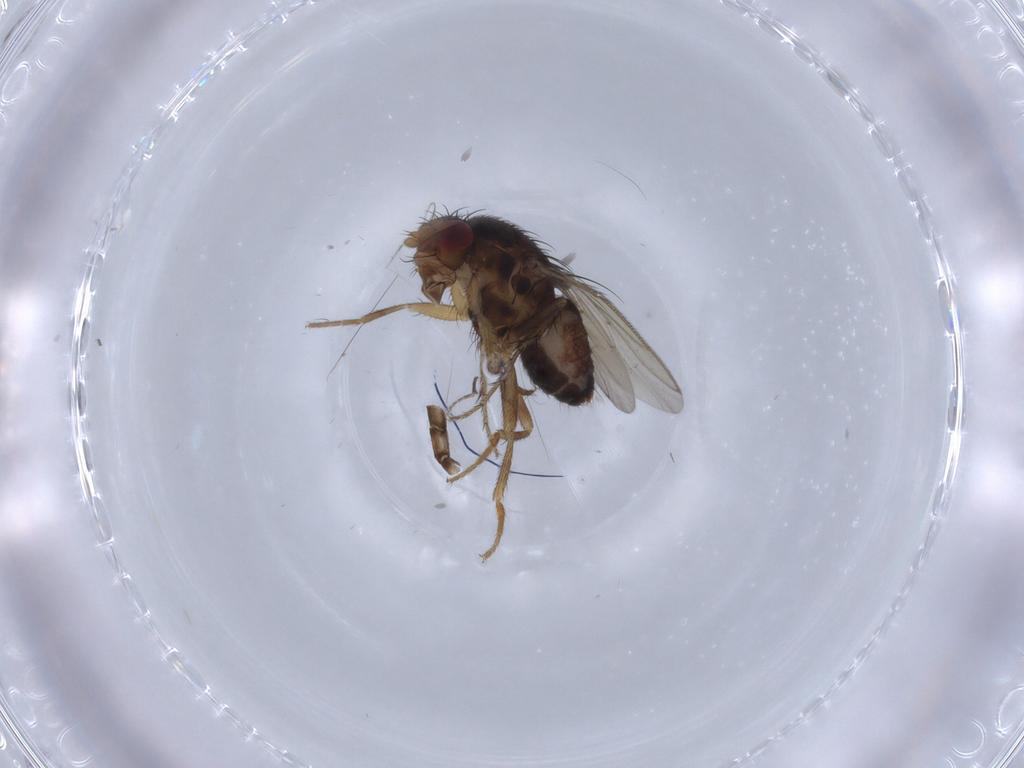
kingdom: Animalia
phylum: Arthropoda
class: Insecta
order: Diptera
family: Sphaeroceridae
